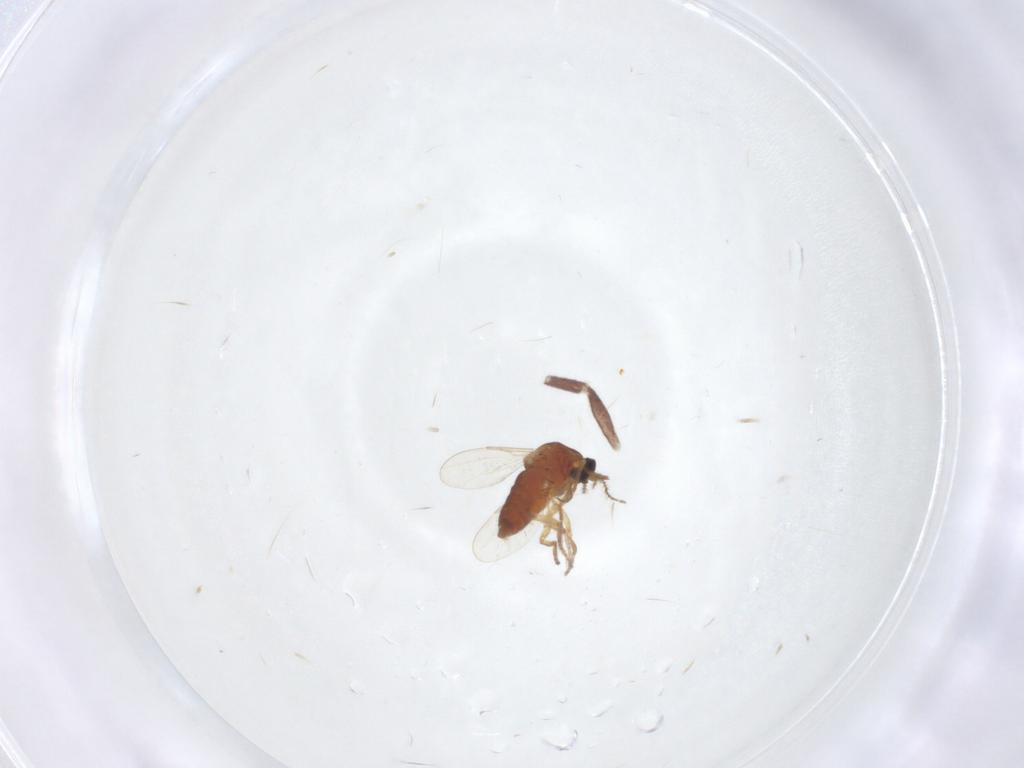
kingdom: Animalia
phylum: Arthropoda
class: Insecta
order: Diptera
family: Ceratopogonidae
